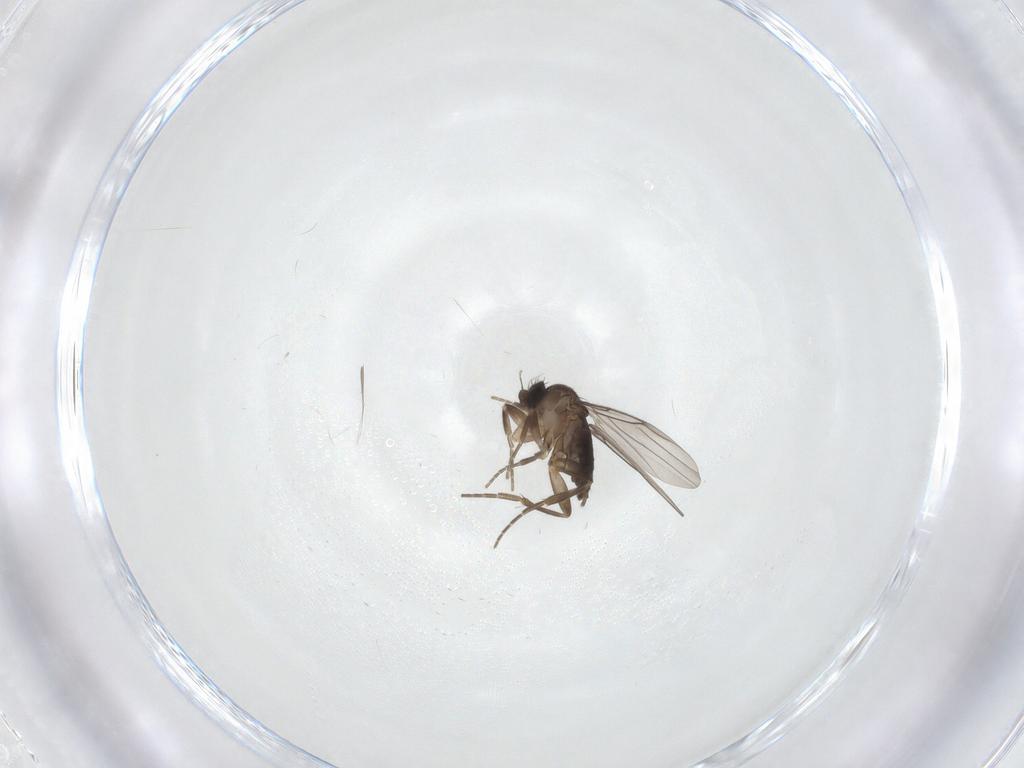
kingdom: Animalia
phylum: Arthropoda
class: Insecta
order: Diptera
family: Phoridae
